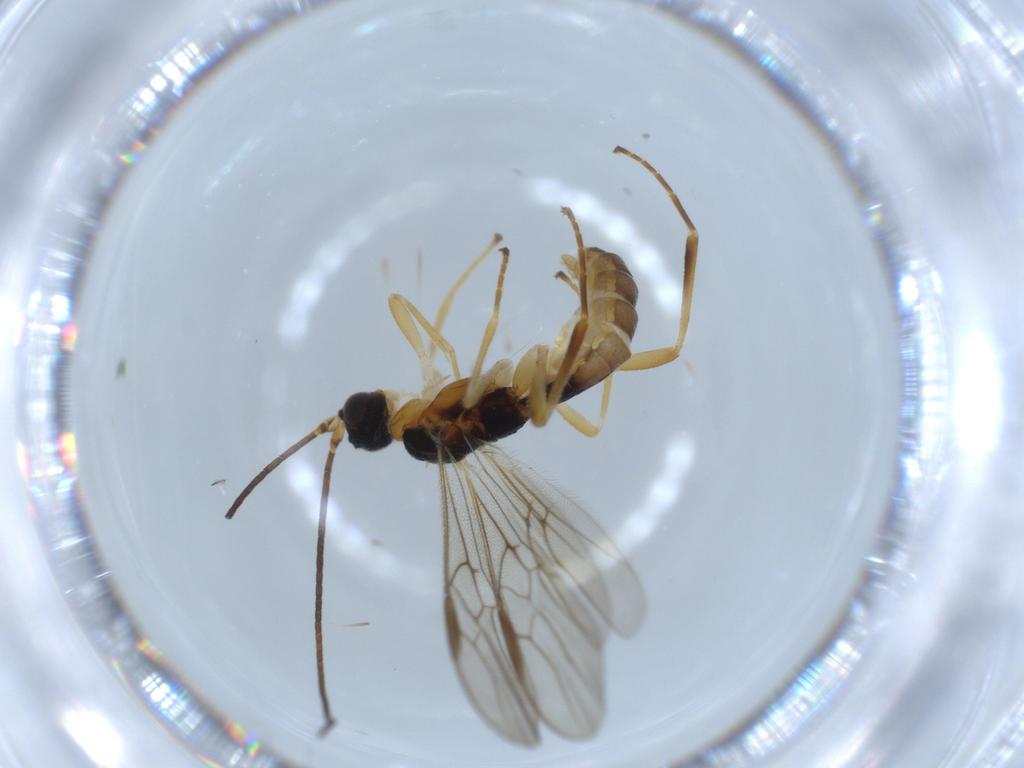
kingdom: Animalia
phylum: Arthropoda
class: Insecta
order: Hymenoptera
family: Braconidae
